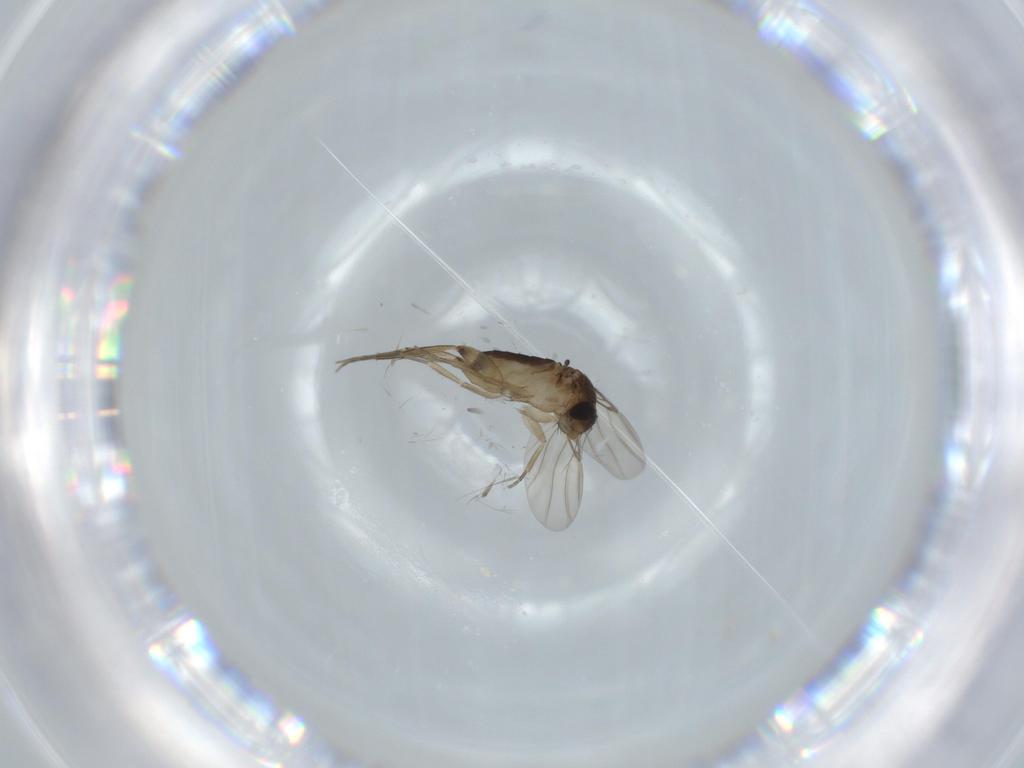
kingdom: Animalia
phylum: Arthropoda
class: Insecta
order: Diptera
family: Phoridae
